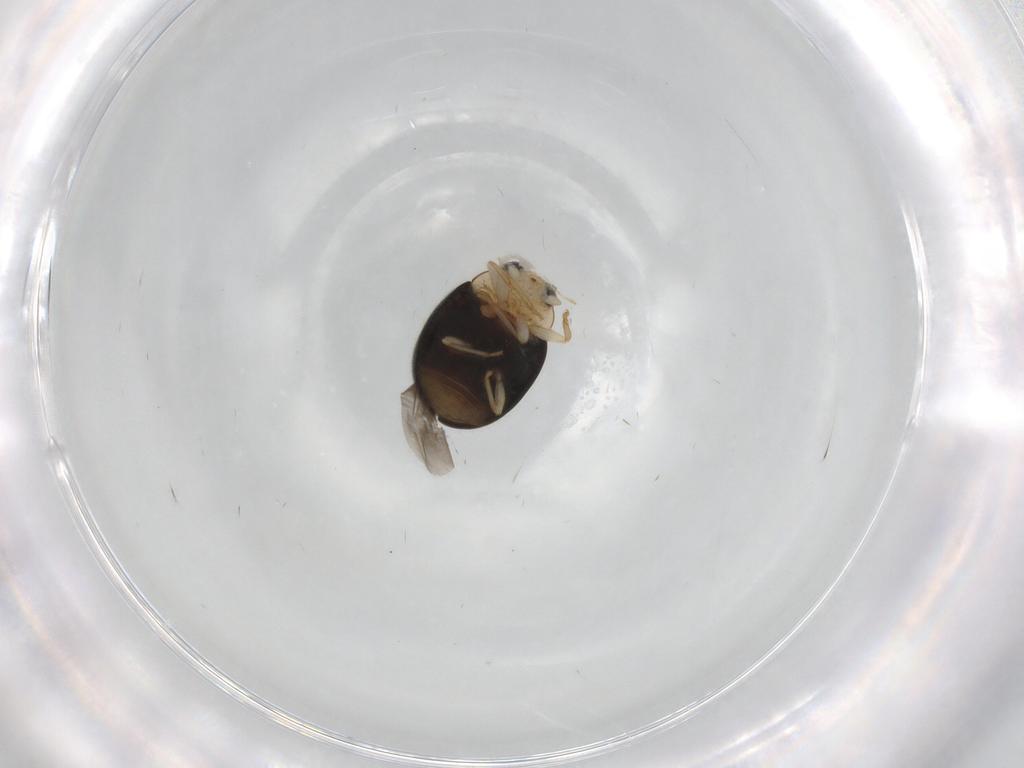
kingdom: Animalia
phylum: Arthropoda
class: Insecta
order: Coleoptera
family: Coccinellidae
